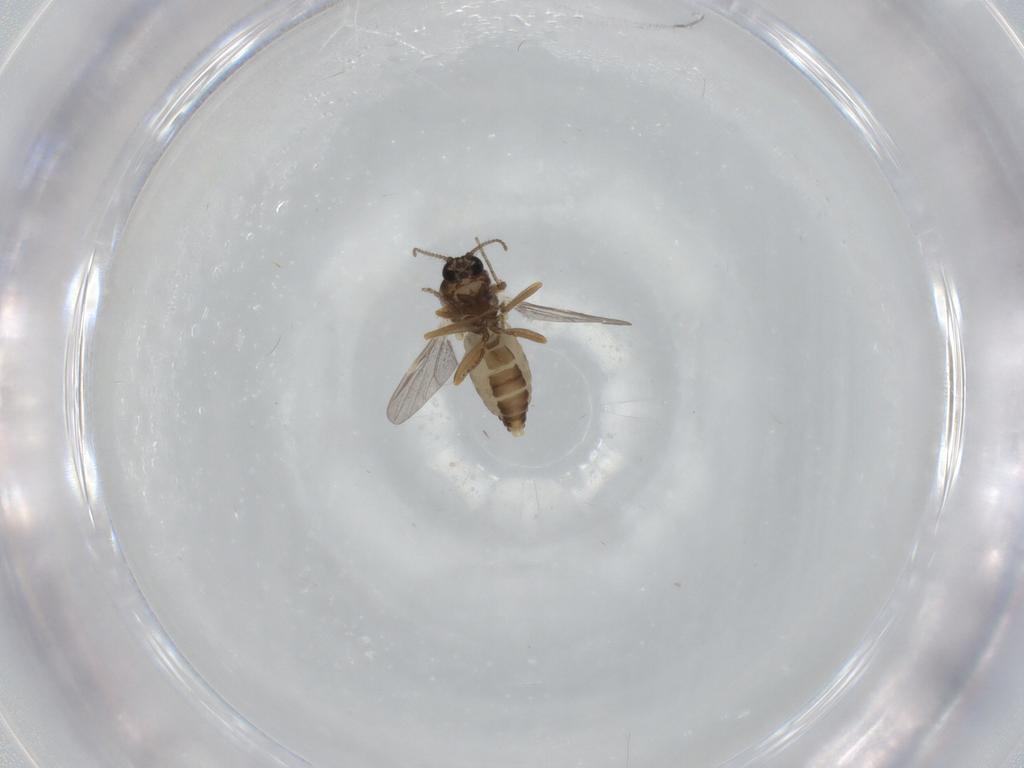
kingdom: Animalia
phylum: Arthropoda
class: Insecta
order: Diptera
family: Ceratopogonidae
